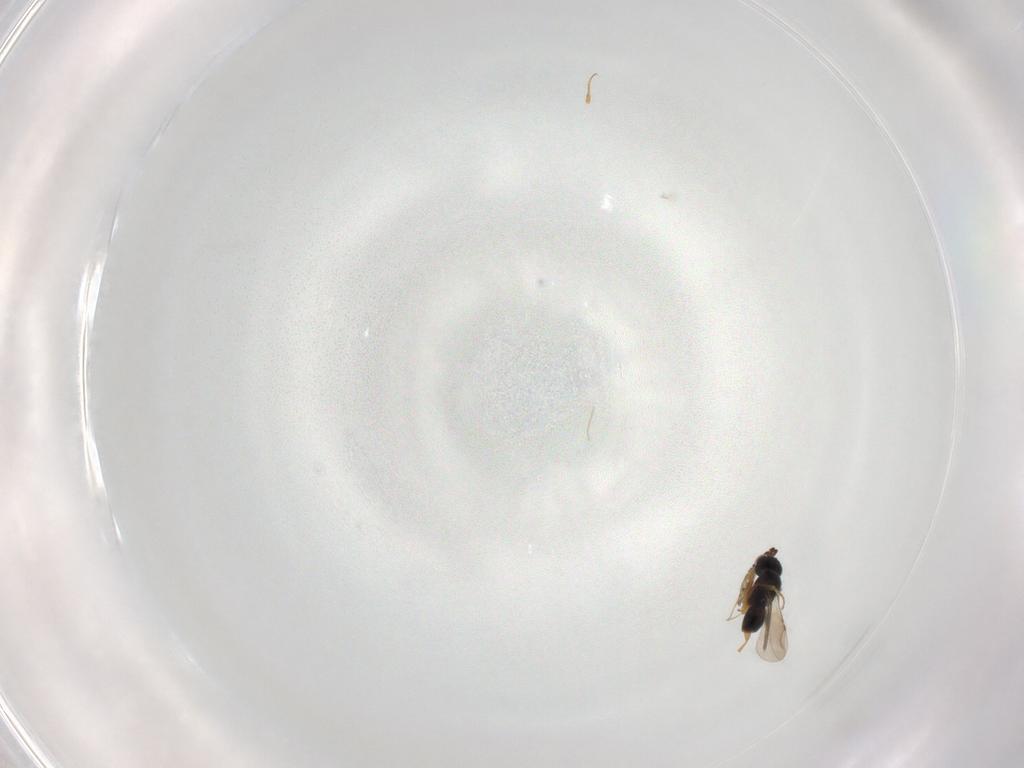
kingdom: Animalia
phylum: Arthropoda
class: Insecta
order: Hymenoptera
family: Ceraphronidae
